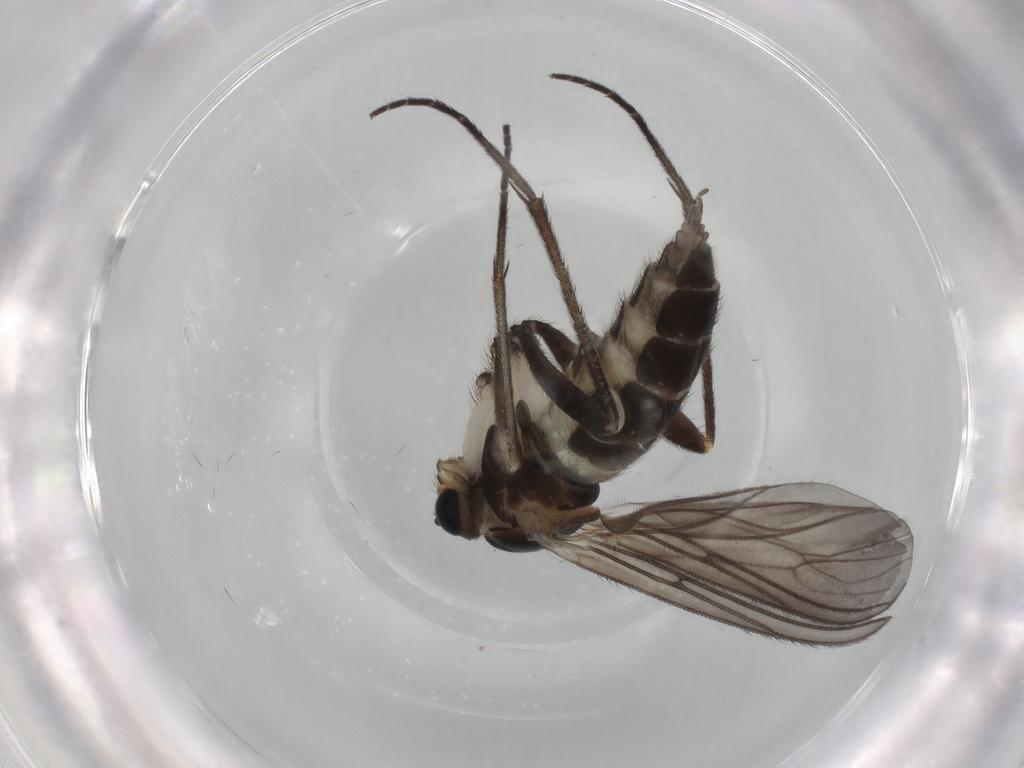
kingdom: Animalia
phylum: Arthropoda
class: Insecta
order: Diptera
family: Sciaridae
